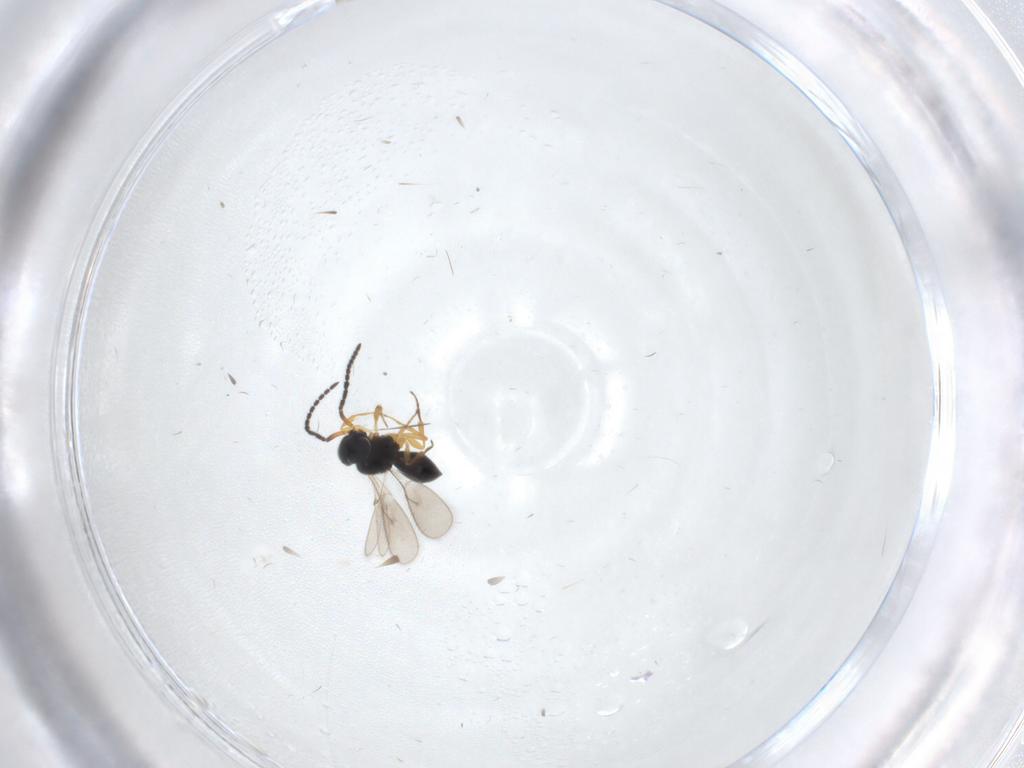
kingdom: Animalia
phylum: Arthropoda
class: Insecta
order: Hymenoptera
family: Scelionidae
